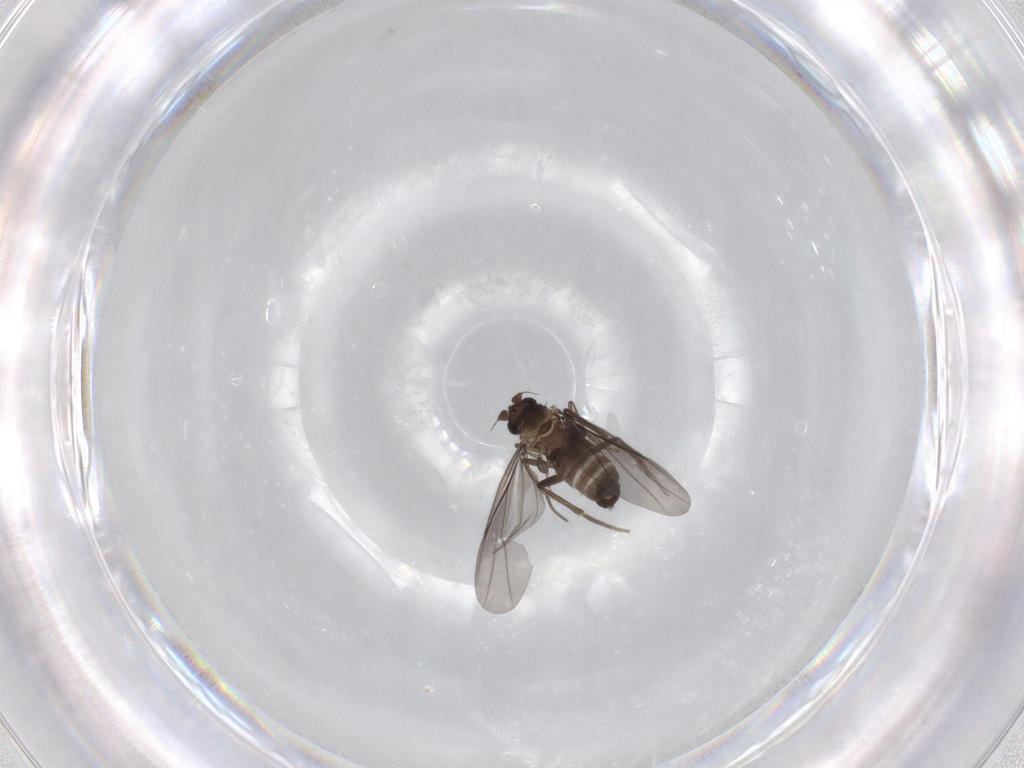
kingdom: Animalia
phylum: Arthropoda
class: Insecta
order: Diptera
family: Phoridae
